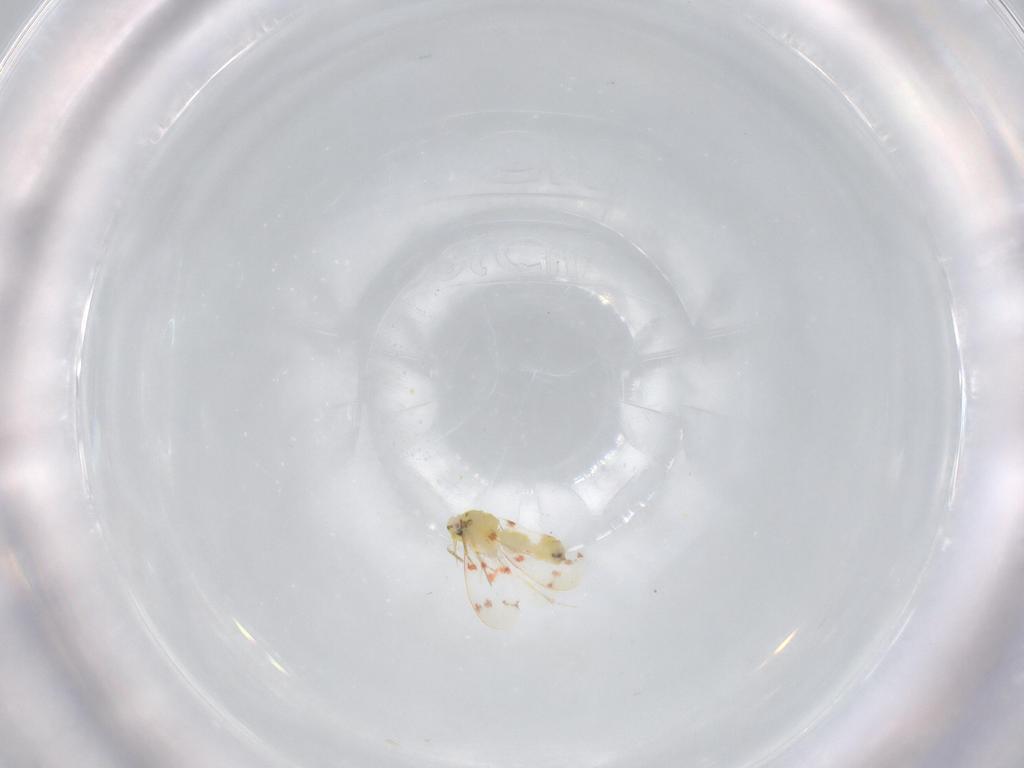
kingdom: Animalia
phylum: Arthropoda
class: Insecta
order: Hemiptera
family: Aleyrodidae
